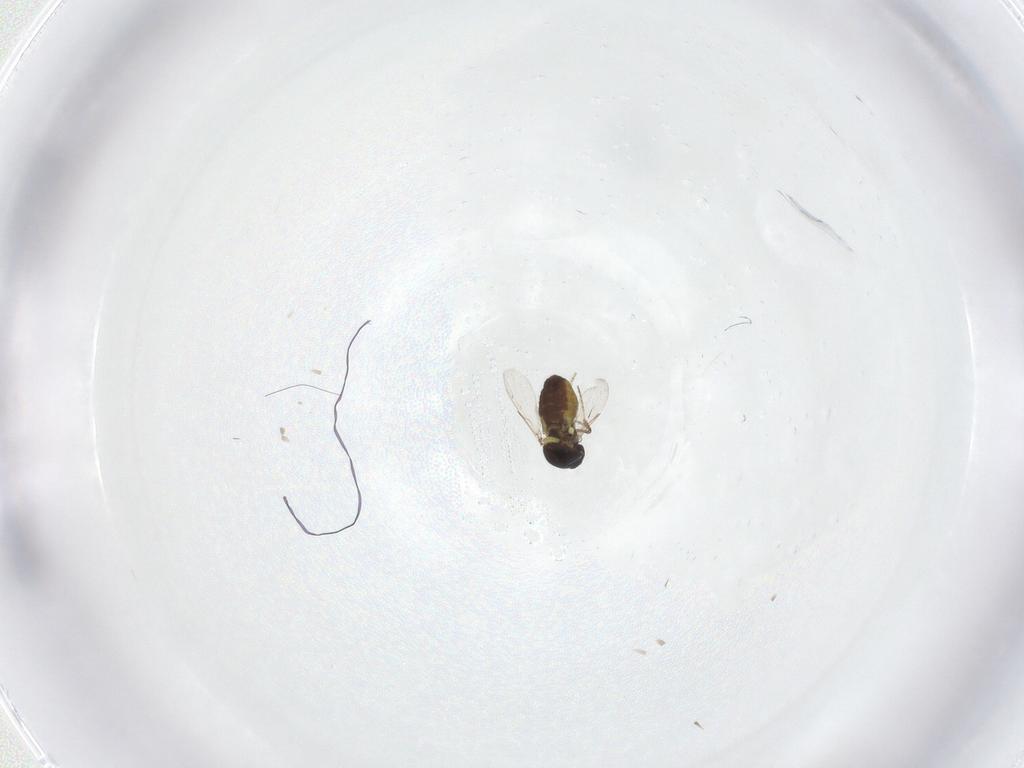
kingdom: Animalia
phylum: Arthropoda
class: Insecta
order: Diptera
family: Ceratopogonidae
